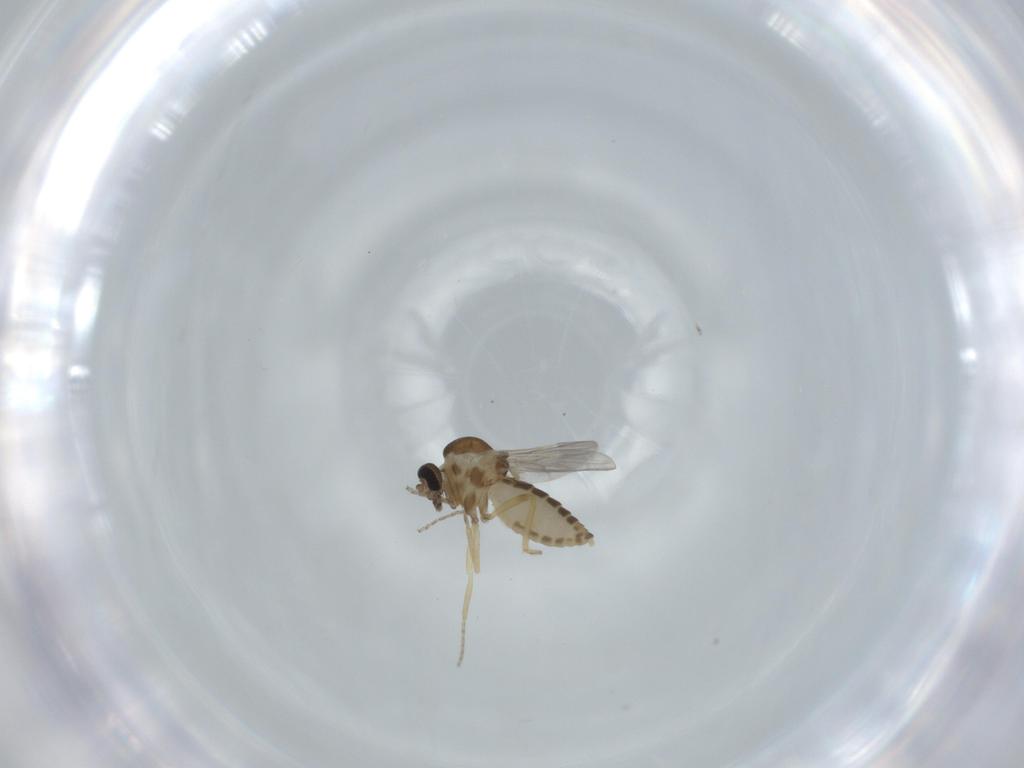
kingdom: Animalia
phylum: Arthropoda
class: Insecta
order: Diptera
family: Ceratopogonidae
